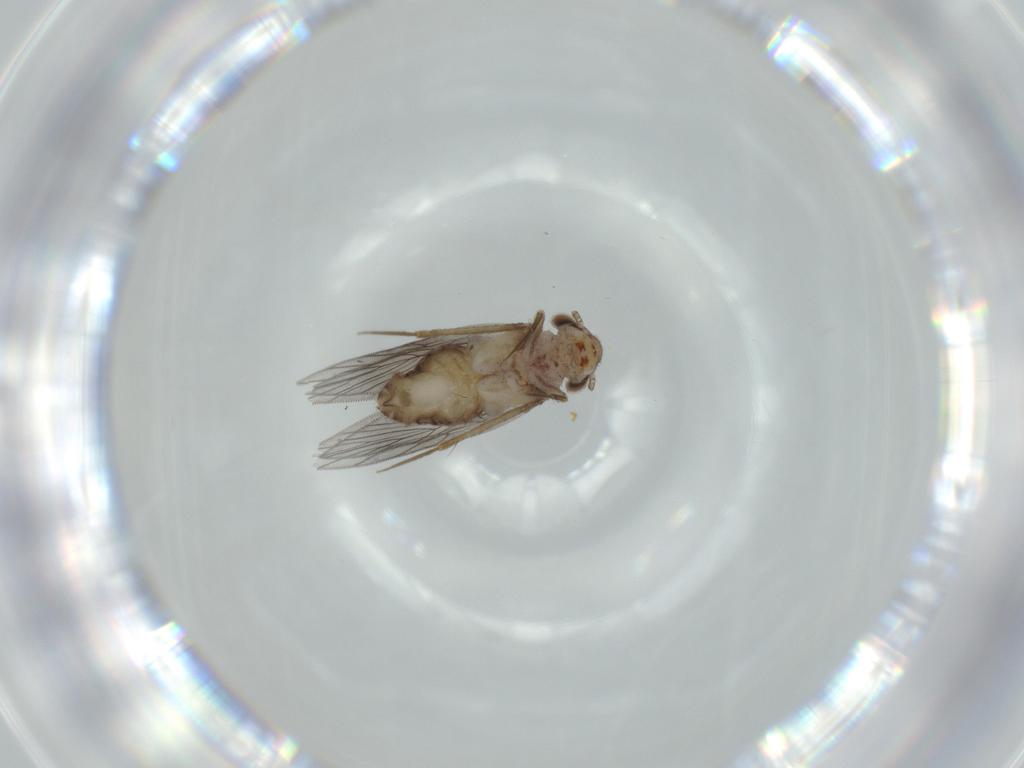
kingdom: Animalia
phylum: Arthropoda
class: Insecta
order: Psocodea
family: Lepidopsocidae
